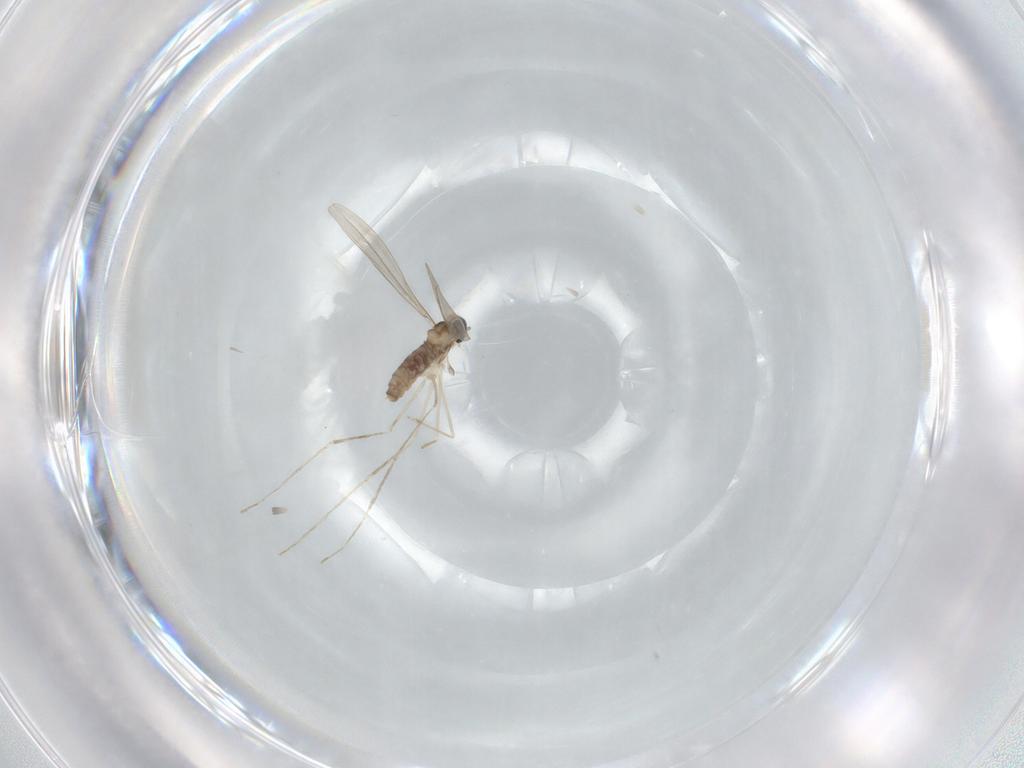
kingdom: Animalia
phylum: Arthropoda
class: Insecta
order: Diptera
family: Cecidomyiidae
